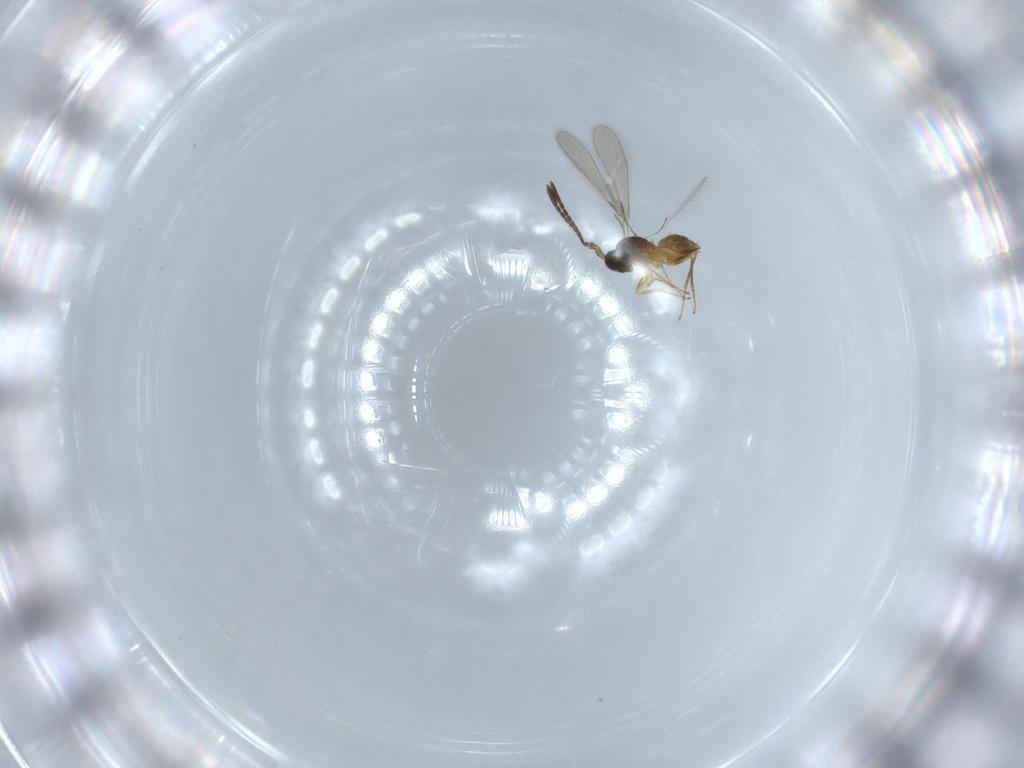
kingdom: Animalia
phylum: Arthropoda
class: Insecta
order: Hymenoptera
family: Mymaridae
